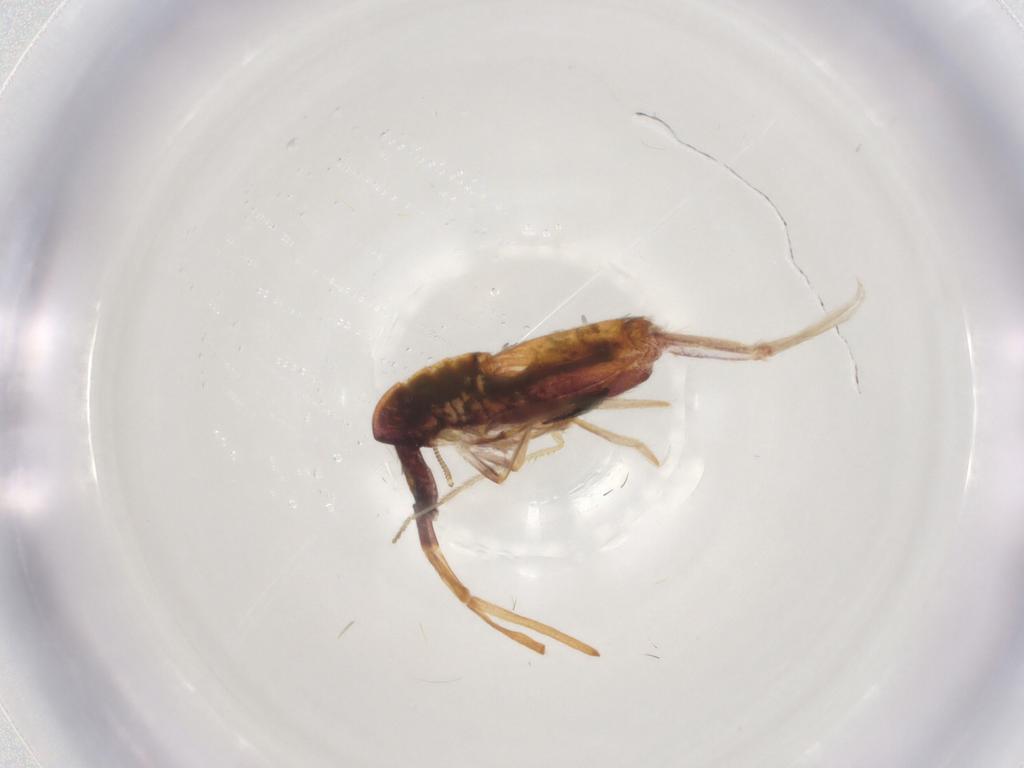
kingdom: Animalia
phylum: Arthropoda
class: Collembola
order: Entomobryomorpha
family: Entomobryidae
